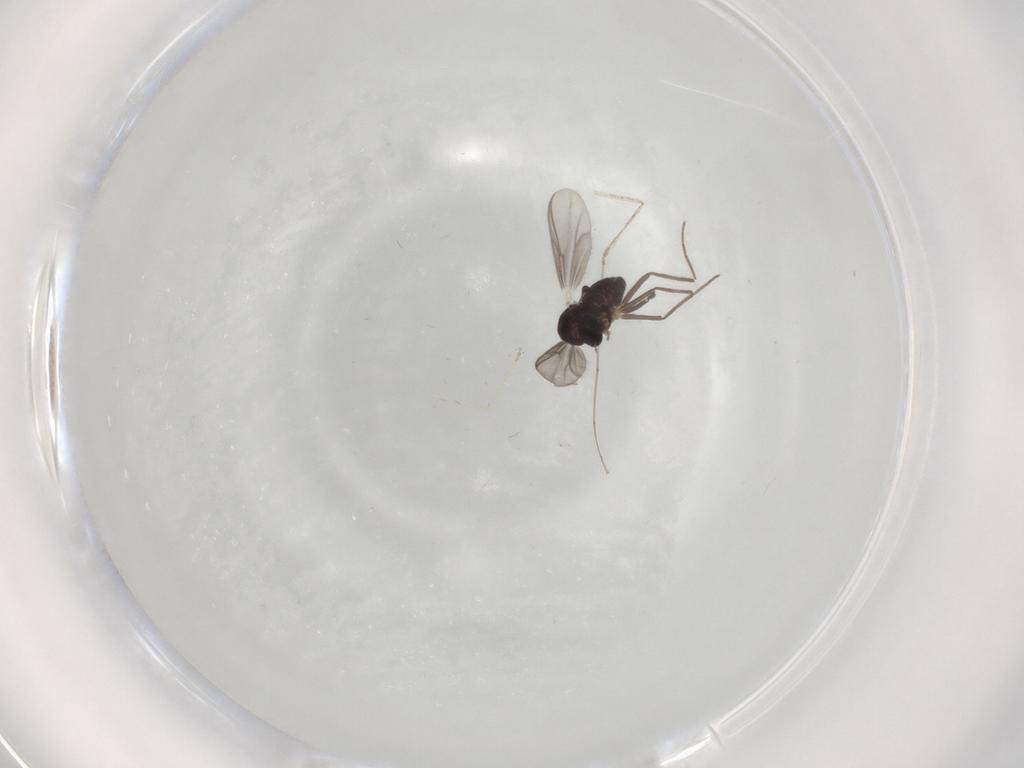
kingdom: Animalia
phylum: Arthropoda
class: Insecta
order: Diptera
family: Chironomidae
